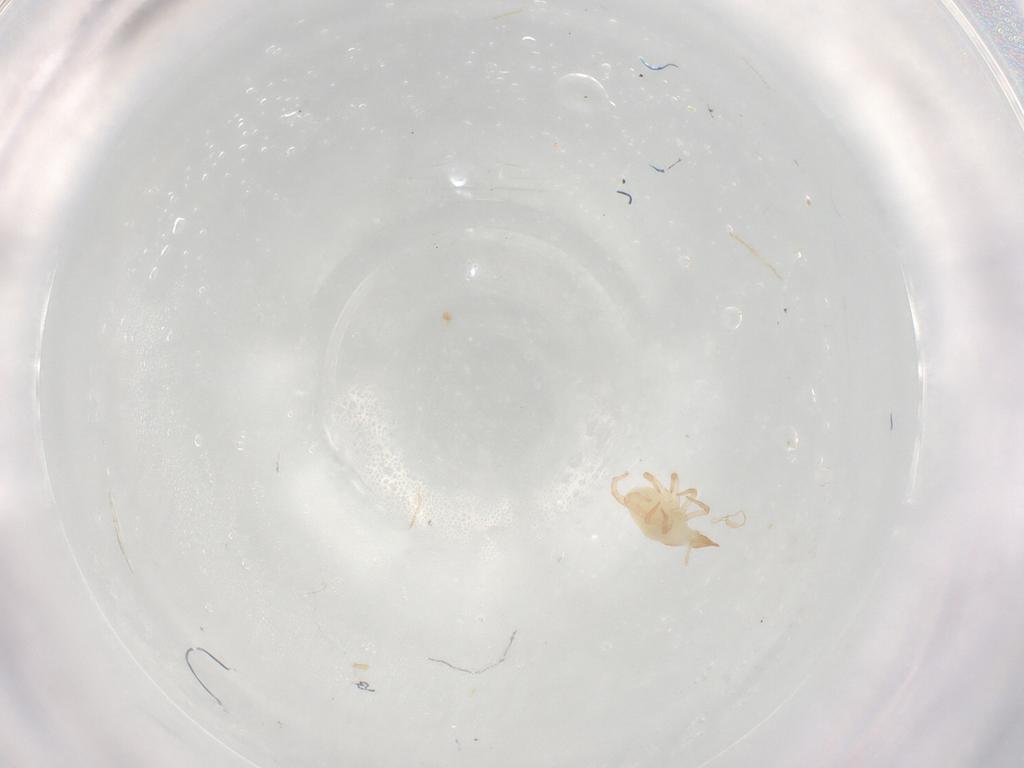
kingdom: Animalia
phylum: Arthropoda
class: Arachnida
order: Trombidiformes
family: Bdellidae
